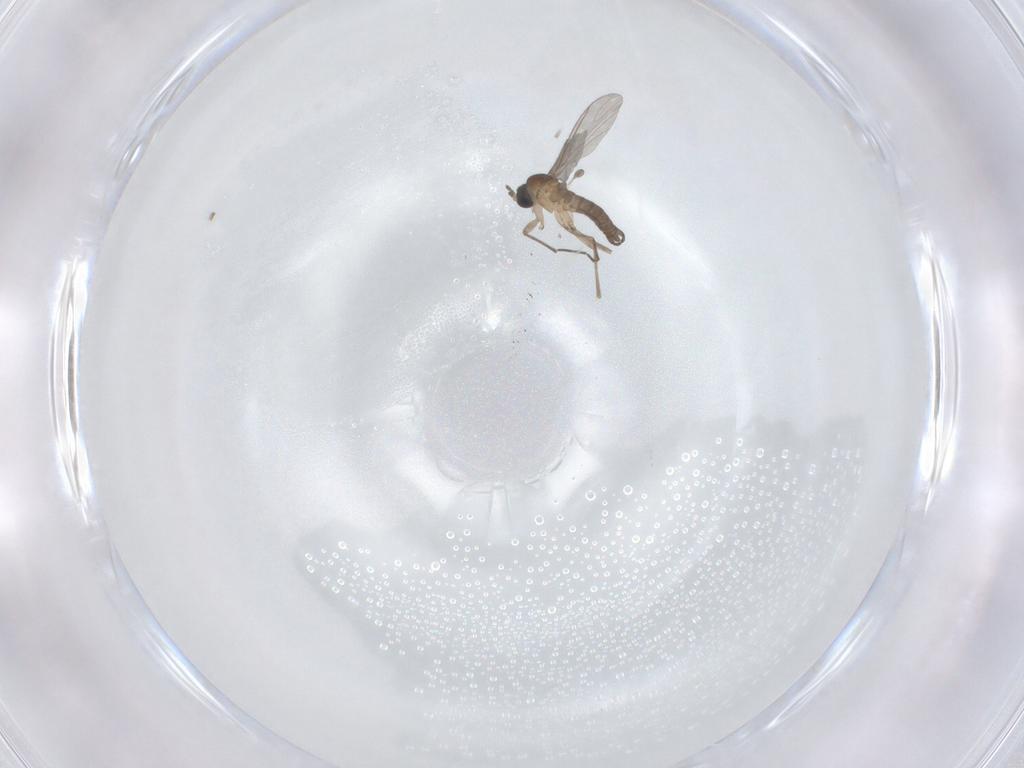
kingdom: Animalia
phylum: Arthropoda
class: Insecta
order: Diptera
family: Sciaridae
